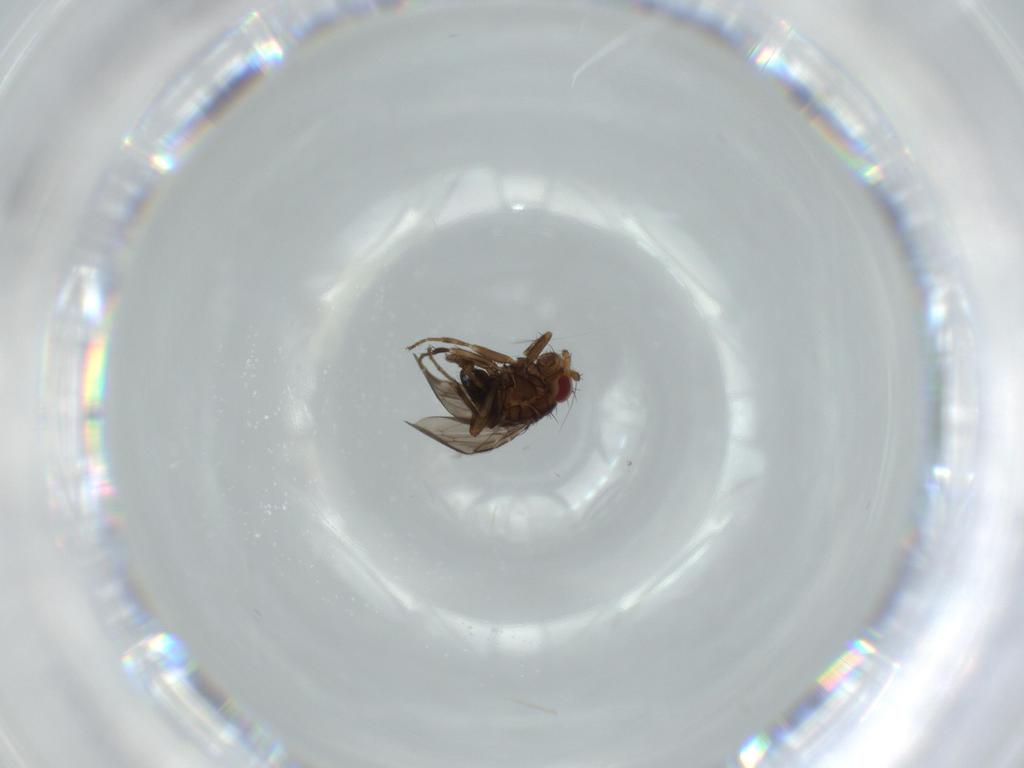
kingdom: Animalia
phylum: Arthropoda
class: Insecta
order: Diptera
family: Sphaeroceridae
